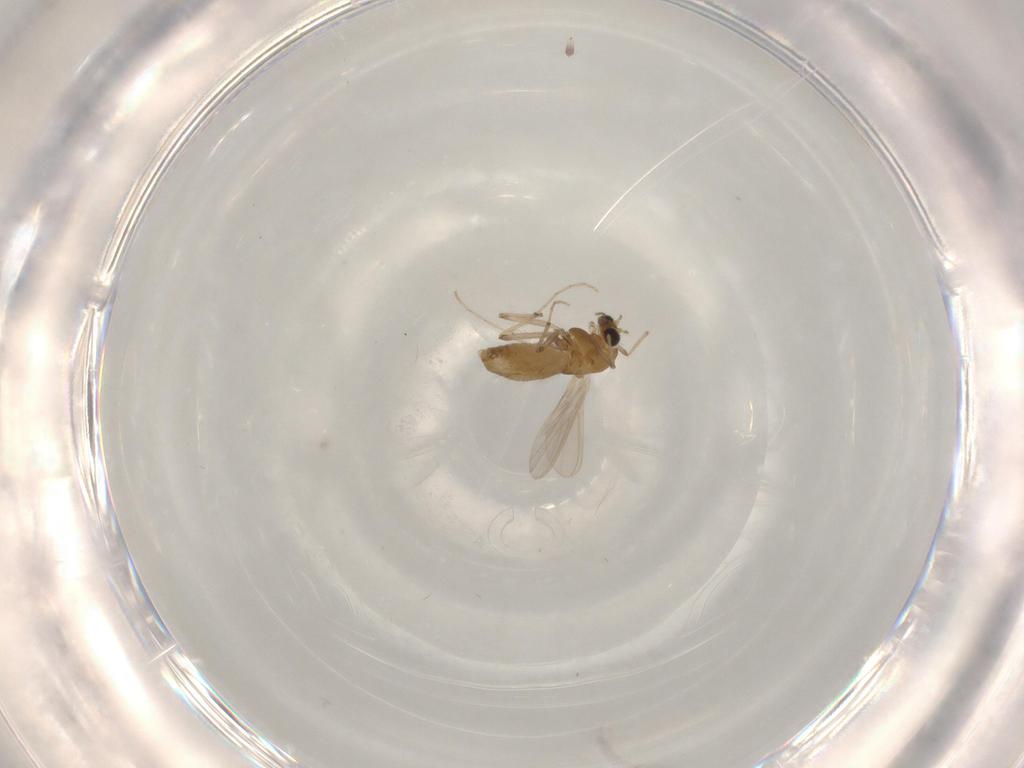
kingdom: Animalia
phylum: Arthropoda
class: Insecta
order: Diptera
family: Chironomidae
